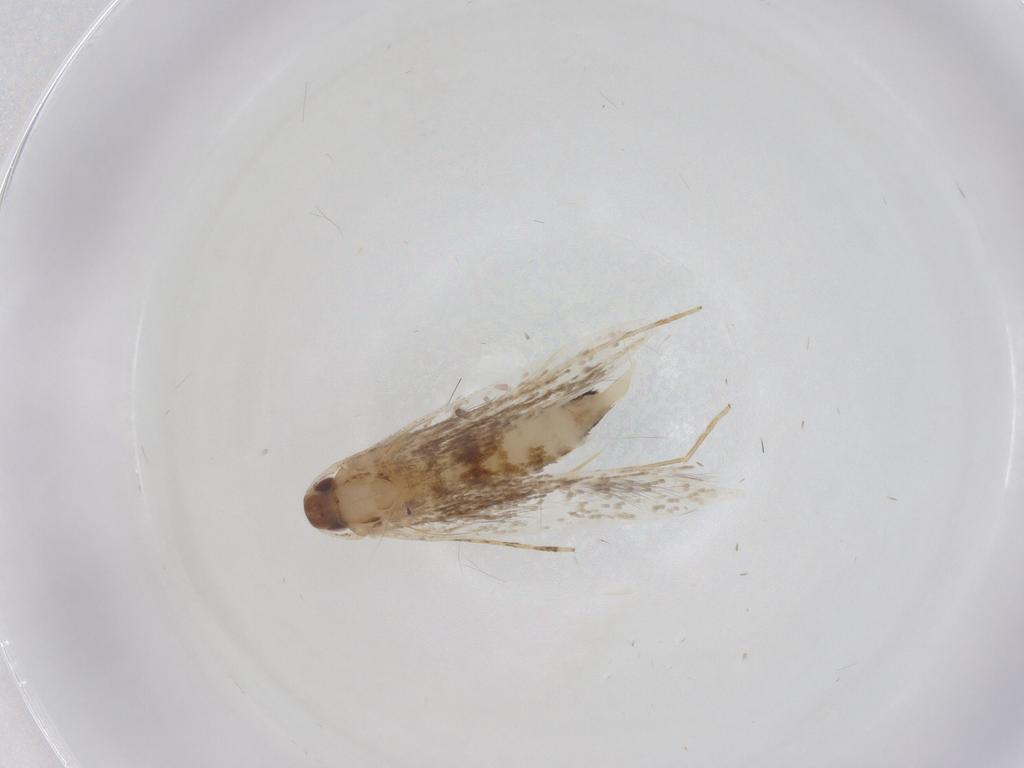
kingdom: Animalia
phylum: Arthropoda
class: Insecta
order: Lepidoptera
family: Cosmopterigidae
